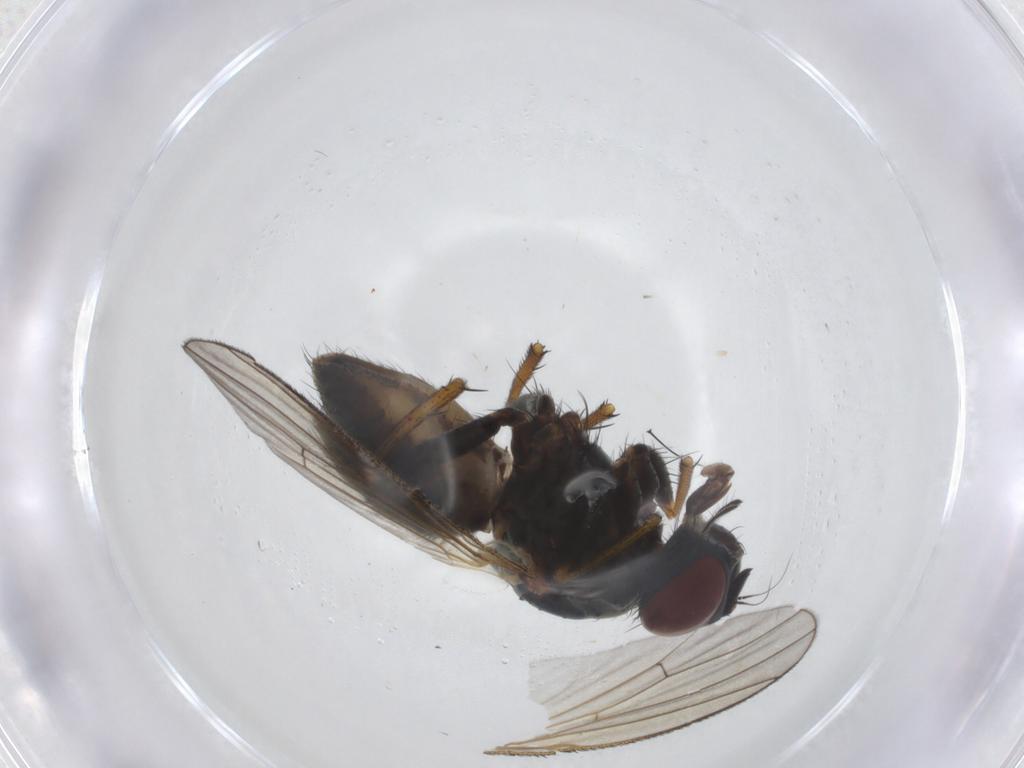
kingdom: Animalia
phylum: Arthropoda
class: Insecta
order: Diptera
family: Muscidae
